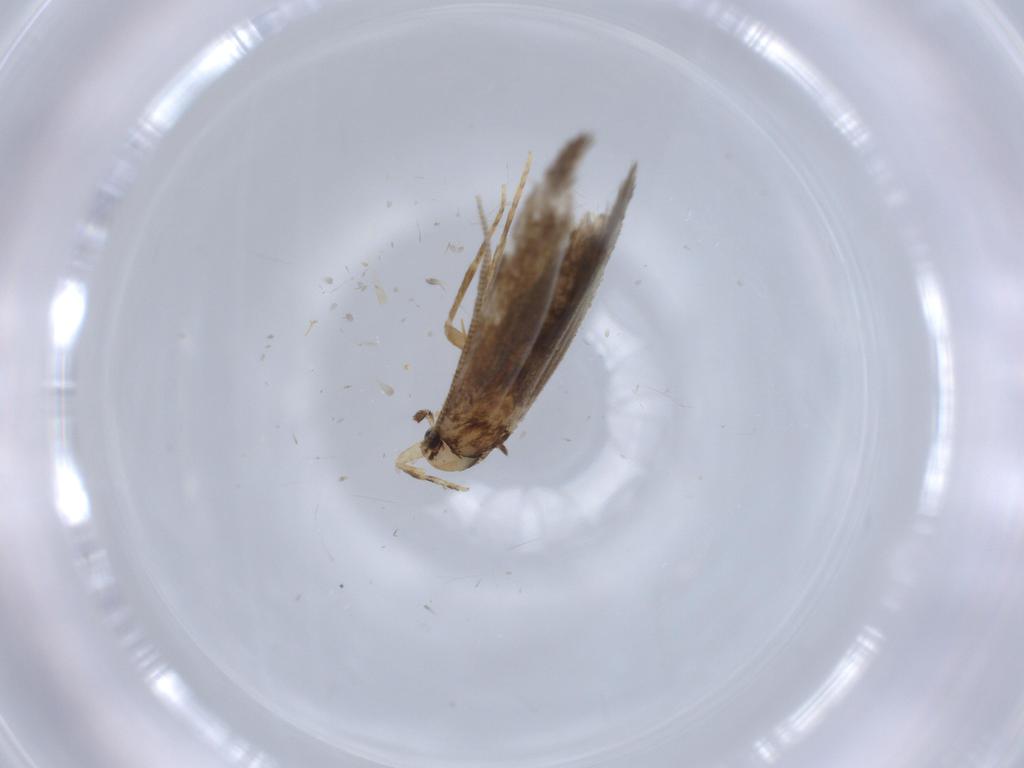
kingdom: Animalia
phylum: Arthropoda
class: Insecta
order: Lepidoptera
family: Tineidae
